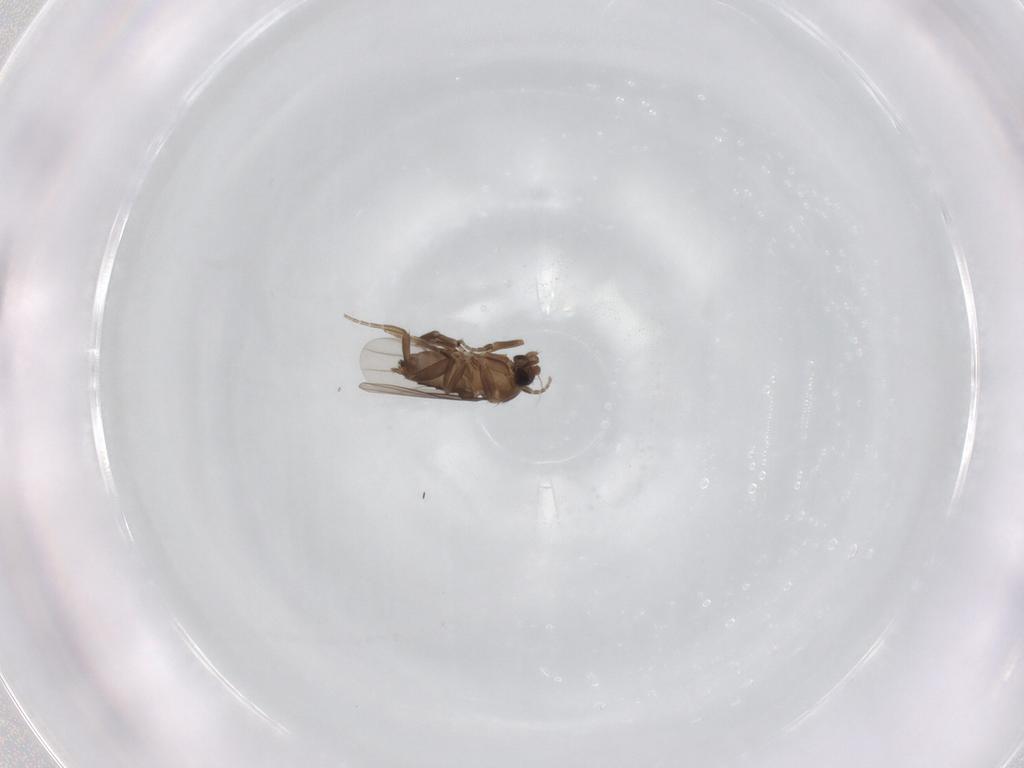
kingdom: Animalia
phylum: Arthropoda
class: Insecta
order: Diptera
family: Phoridae
